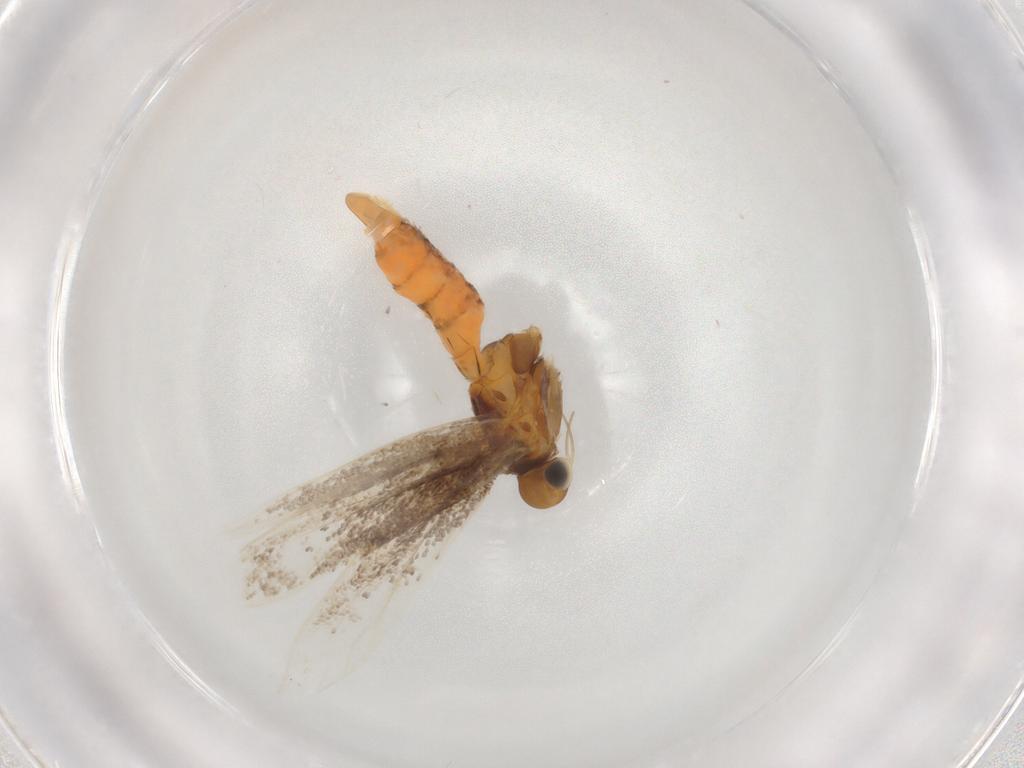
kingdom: Animalia
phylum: Arthropoda
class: Insecta
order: Lepidoptera
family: Gracillariidae
